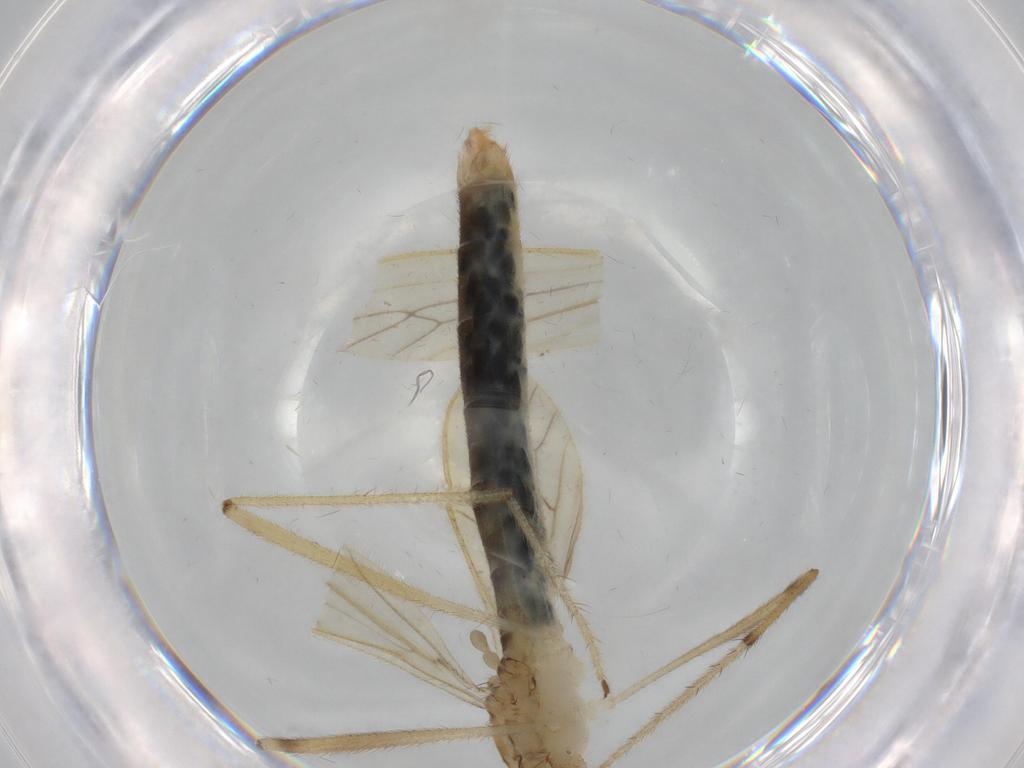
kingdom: Animalia
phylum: Arthropoda
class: Insecta
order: Diptera
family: Phoridae
